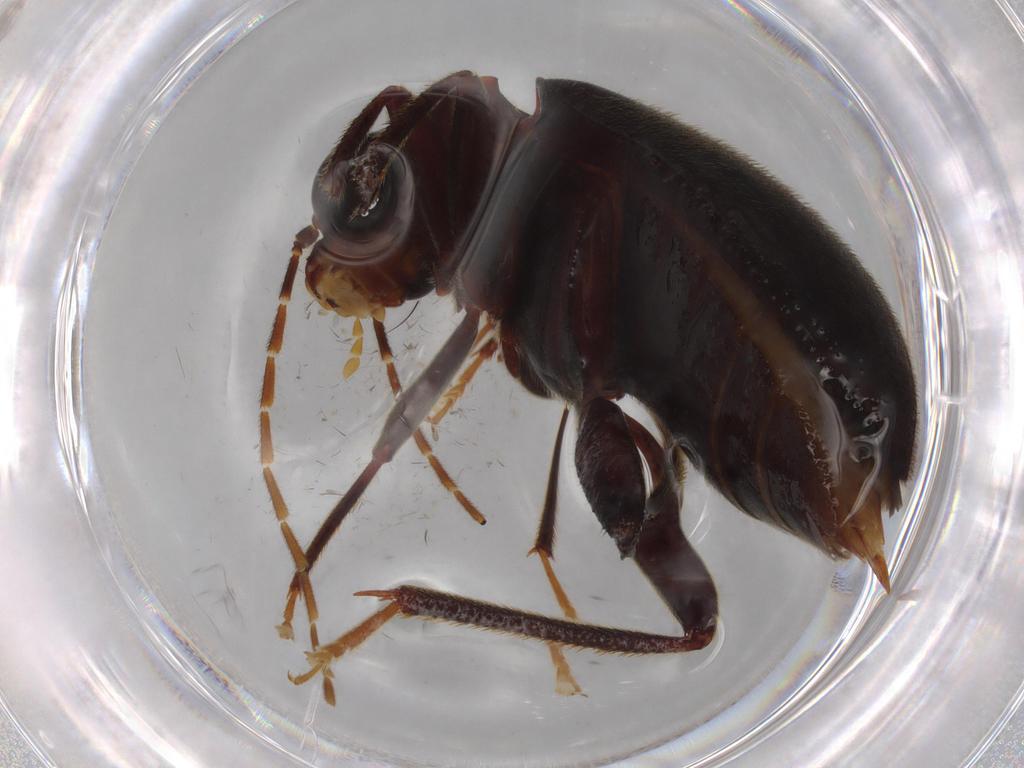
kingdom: Animalia
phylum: Arthropoda
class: Insecta
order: Coleoptera
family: Ptilodactylidae
